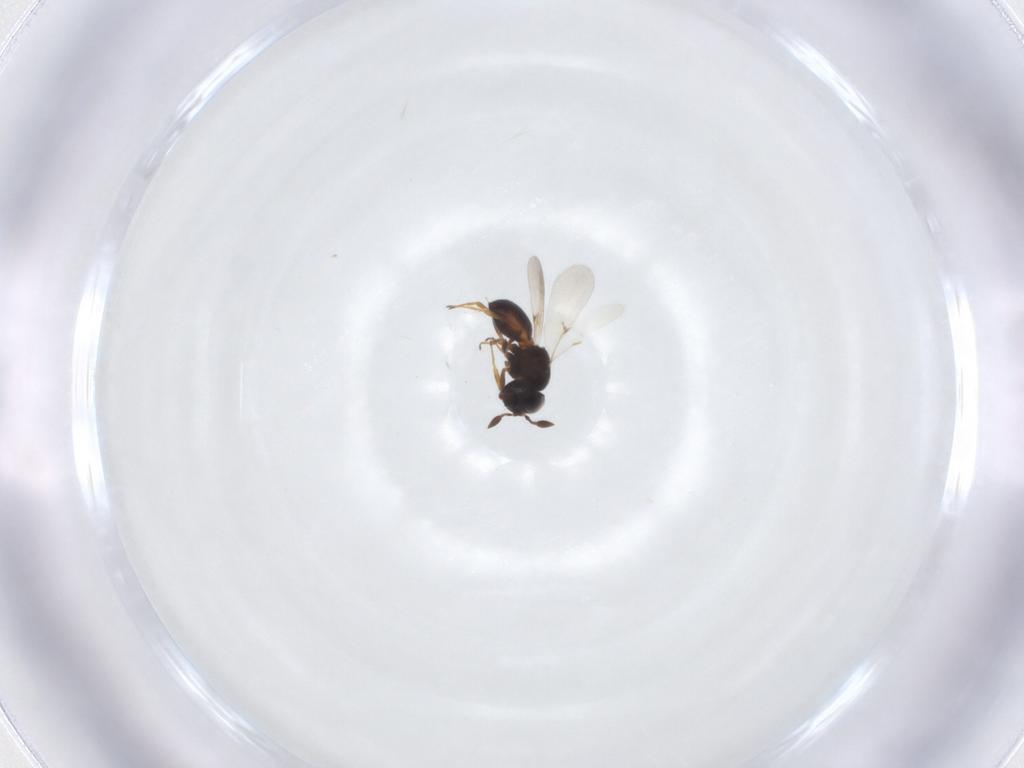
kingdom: Animalia
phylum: Arthropoda
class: Arachnida
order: Araneae
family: Pholcidae
